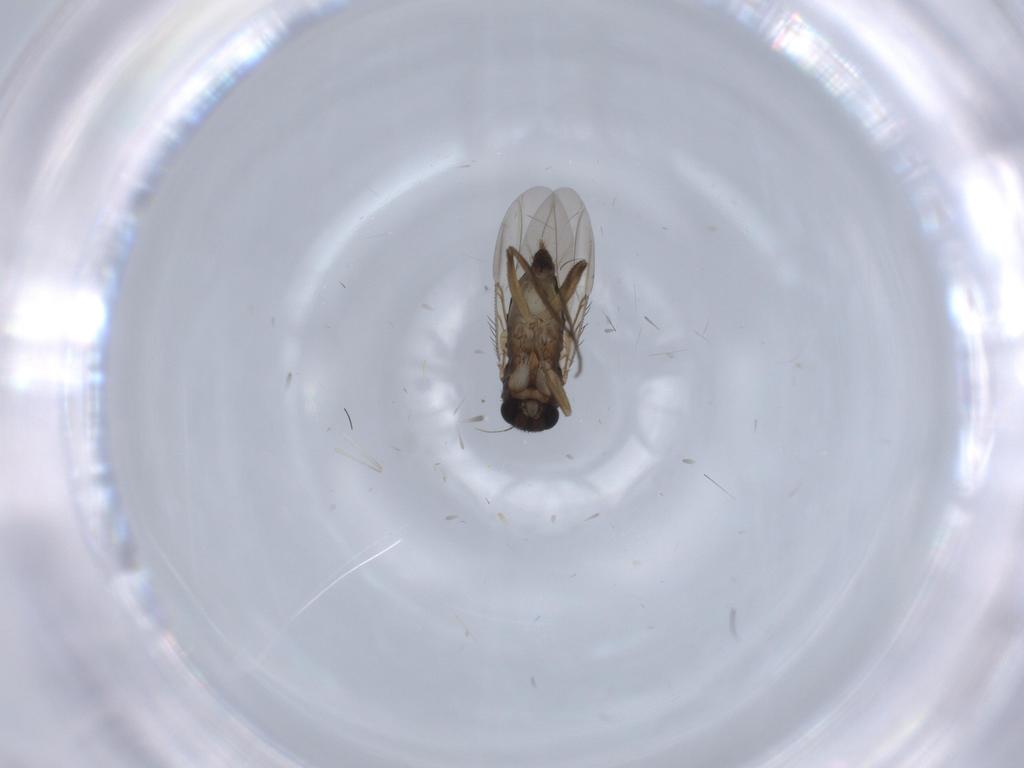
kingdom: Animalia
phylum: Arthropoda
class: Insecta
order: Diptera
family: Phoridae
